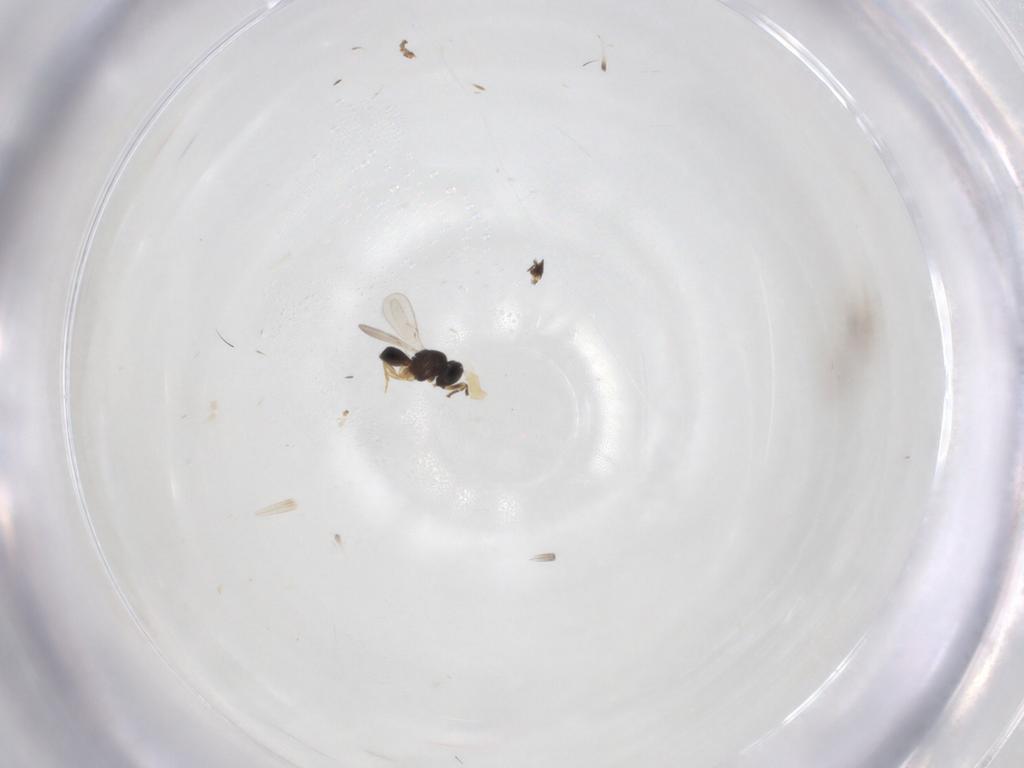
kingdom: Animalia
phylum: Arthropoda
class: Insecta
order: Hymenoptera
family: Scelionidae
